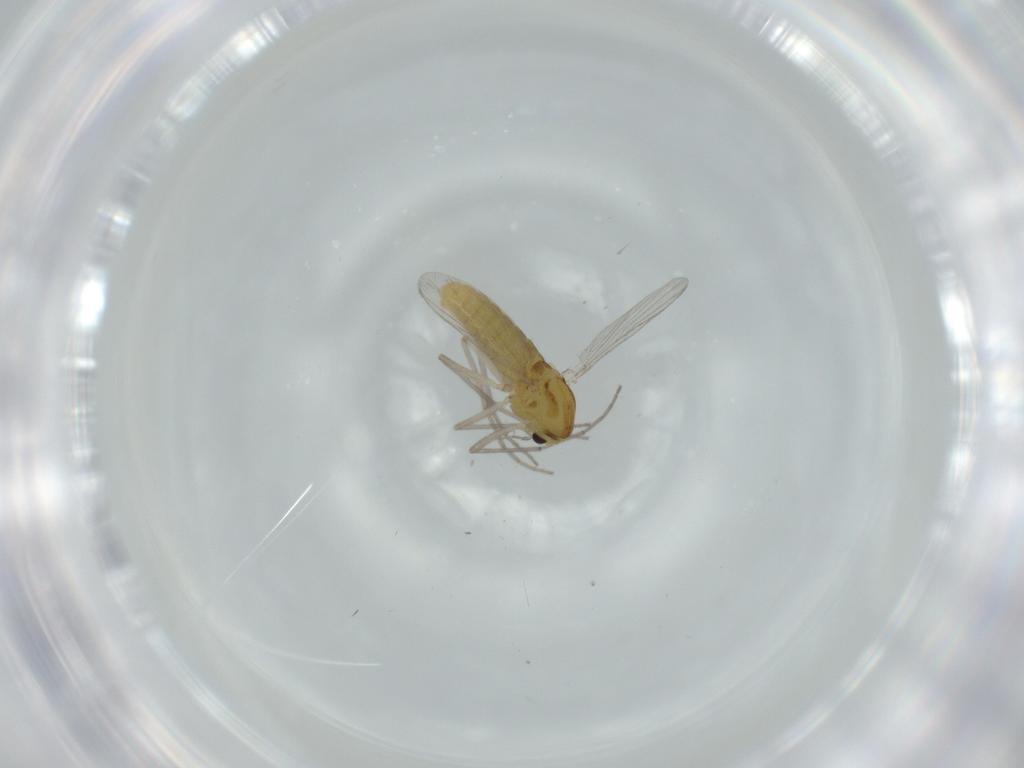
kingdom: Animalia
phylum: Arthropoda
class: Insecta
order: Diptera
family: Chironomidae
